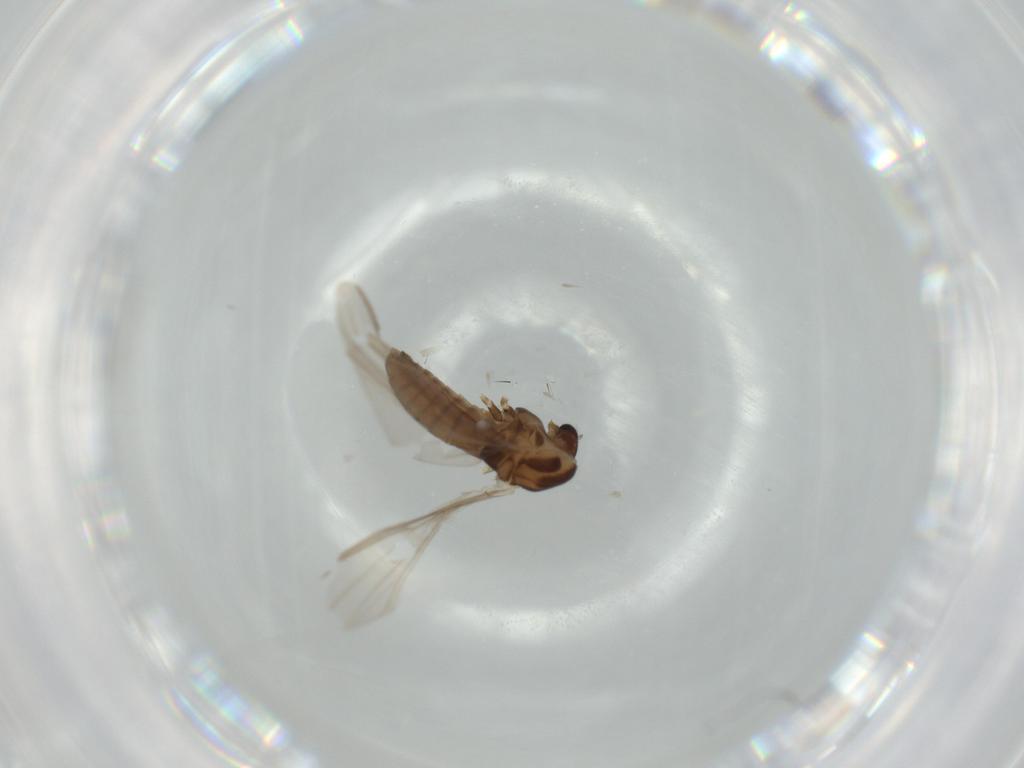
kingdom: Animalia
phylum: Arthropoda
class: Insecta
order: Diptera
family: Chironomidae
